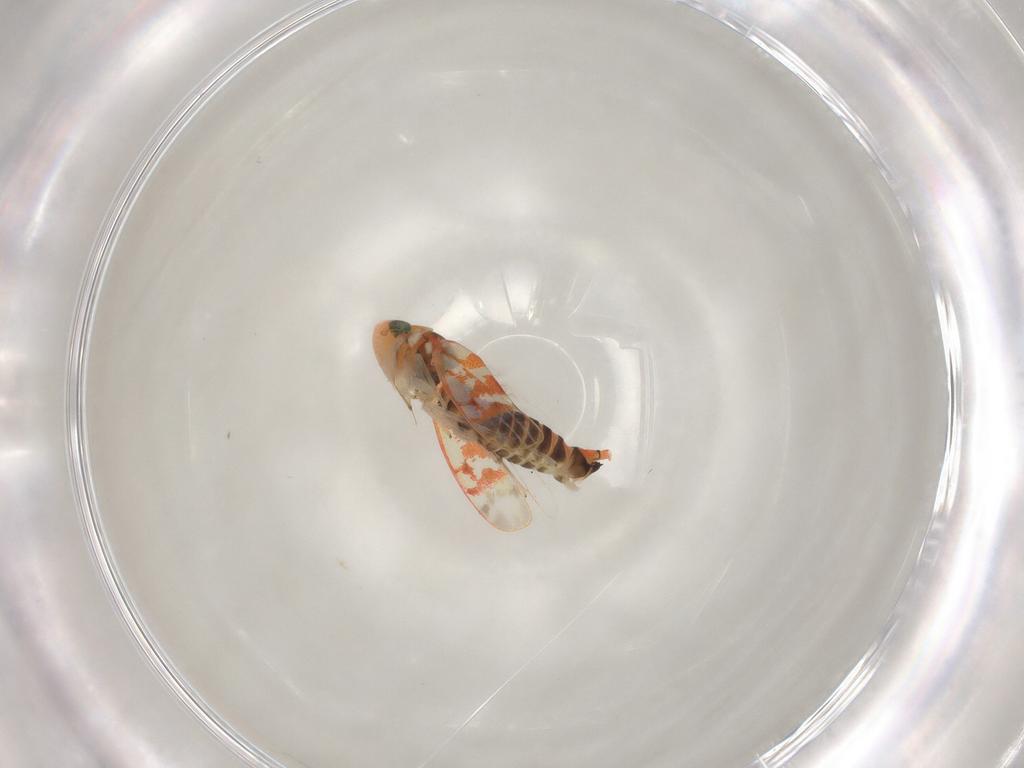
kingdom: Animalia
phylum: Arthropoda
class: Insecta
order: Hemiptera
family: Cicadellidae
